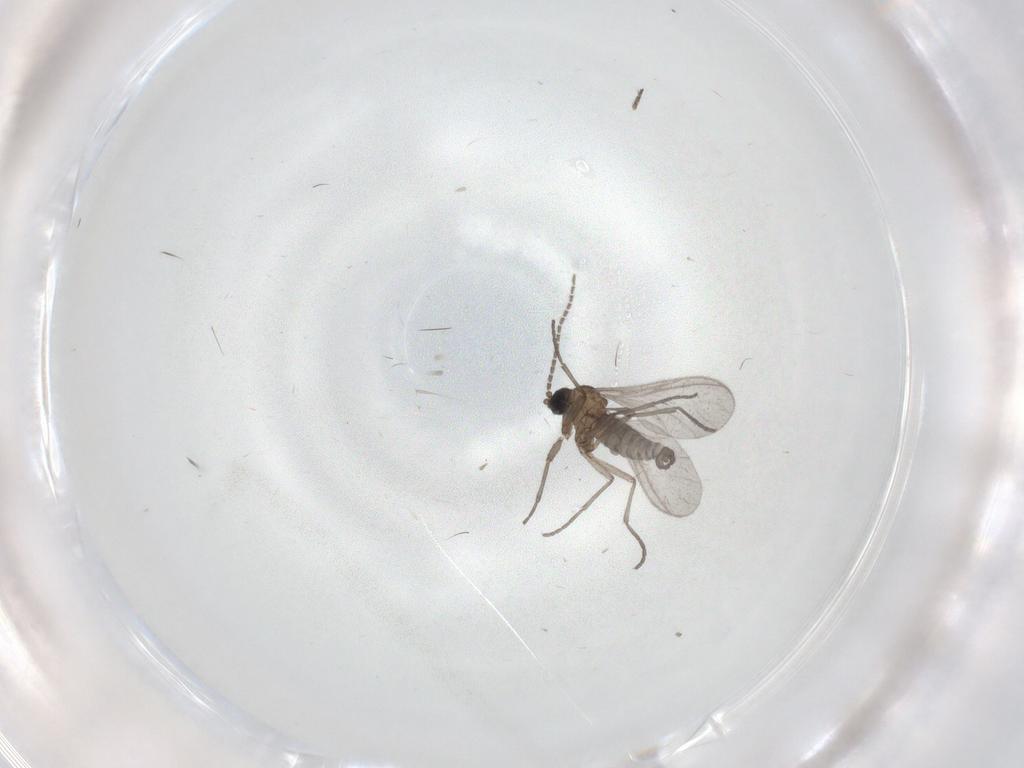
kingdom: Animalia
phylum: Arthropoda
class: Insecta
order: Diptera
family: Sciaridae
